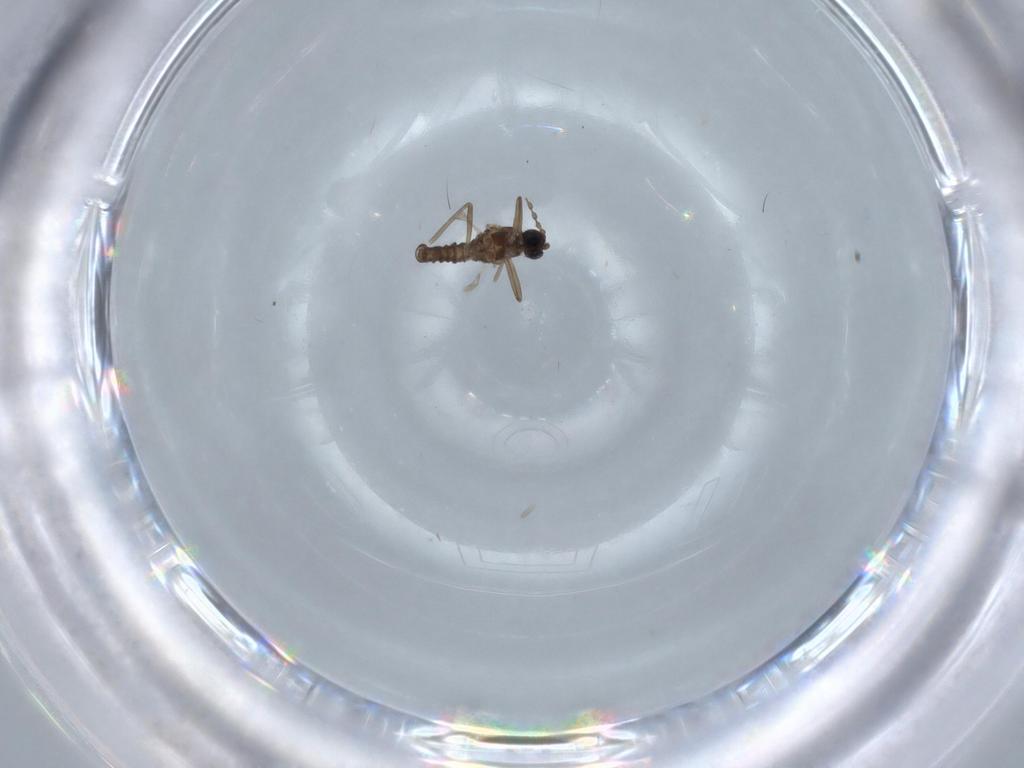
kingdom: Animalia
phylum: Arthropoda
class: Insecta
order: Diptera
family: Cecidomyiidae
